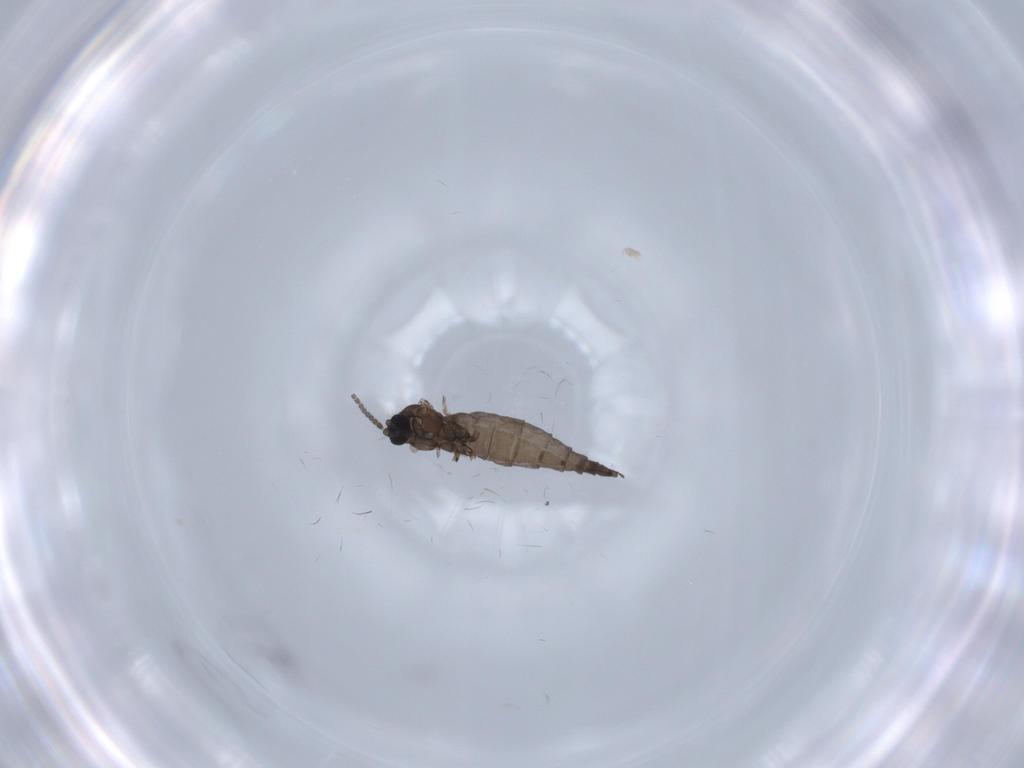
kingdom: Animalia
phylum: Arthropoda
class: Insecta
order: Diptera
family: Sciaridae
